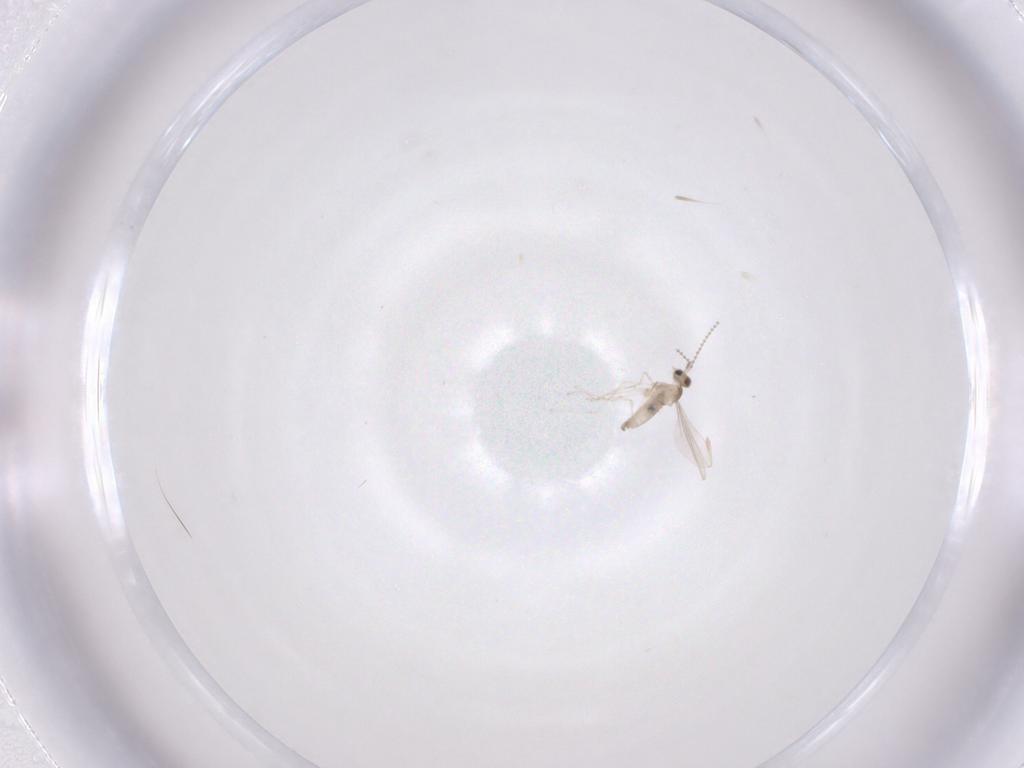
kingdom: Animalia
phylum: Arthropoda
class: Insecta
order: Diptera
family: Cecidomyiidae
